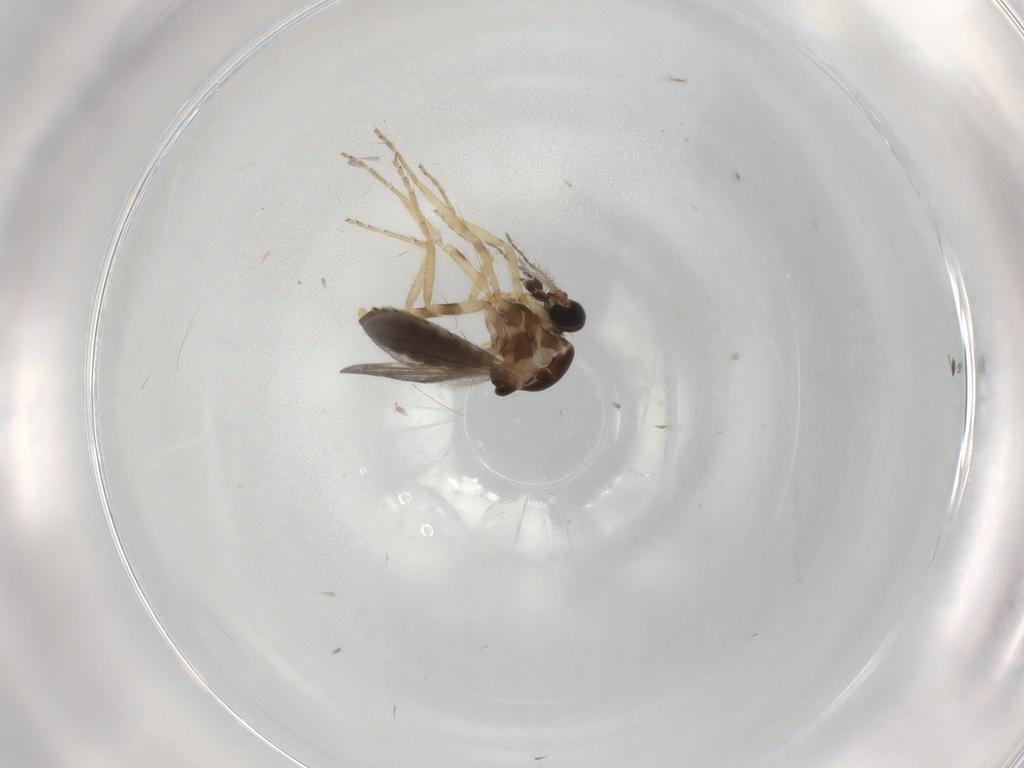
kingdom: Animalia
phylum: Arthropoda
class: Insecta
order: Diptera
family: Ceratopogonidae
